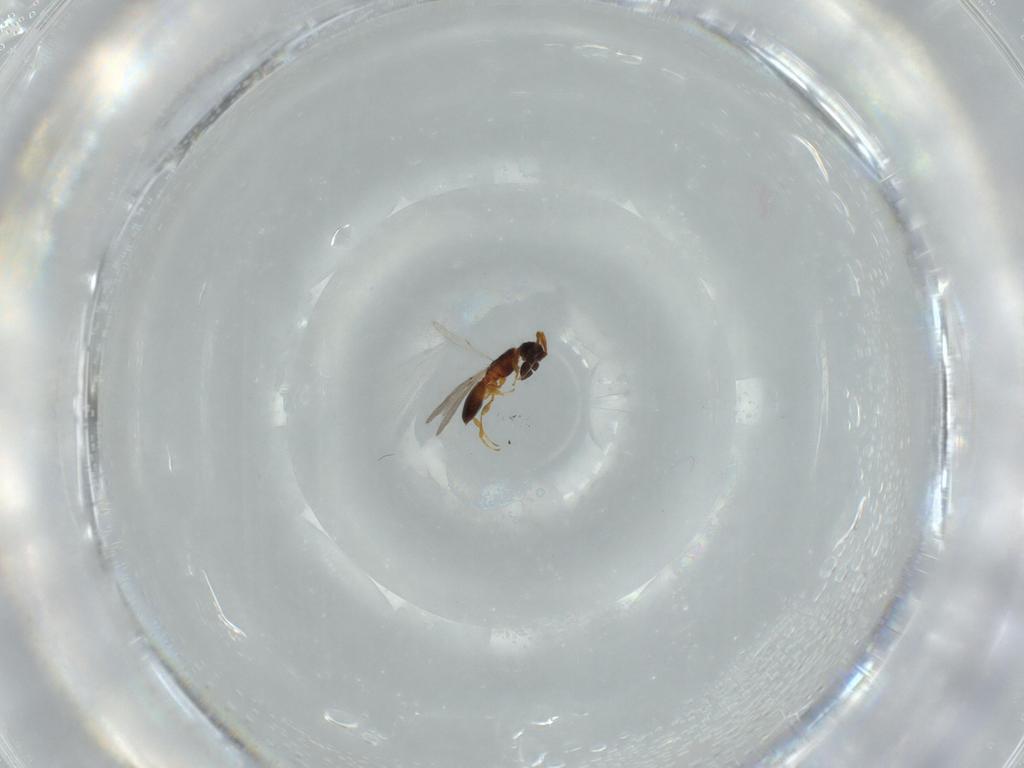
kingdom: Animalia
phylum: Arthropoda
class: Insecta
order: Hymenoptera
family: Diapriidae
